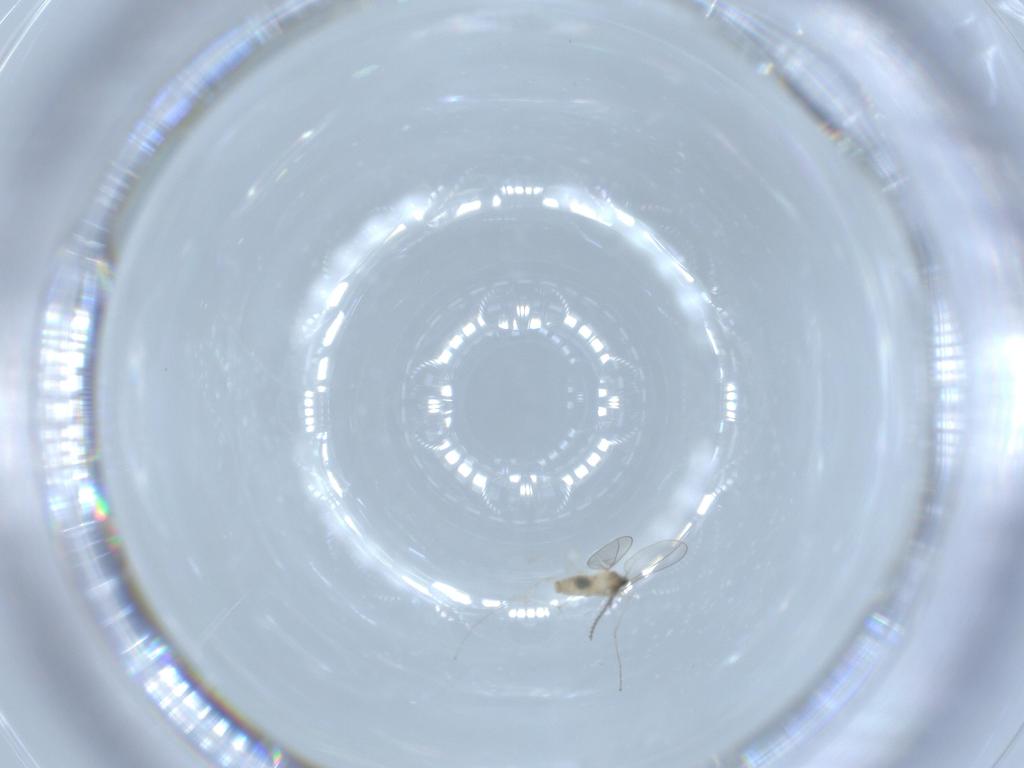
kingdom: Animalia
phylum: Arthropoda
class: Insecta
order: Diptera
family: Cecidomyiidae
